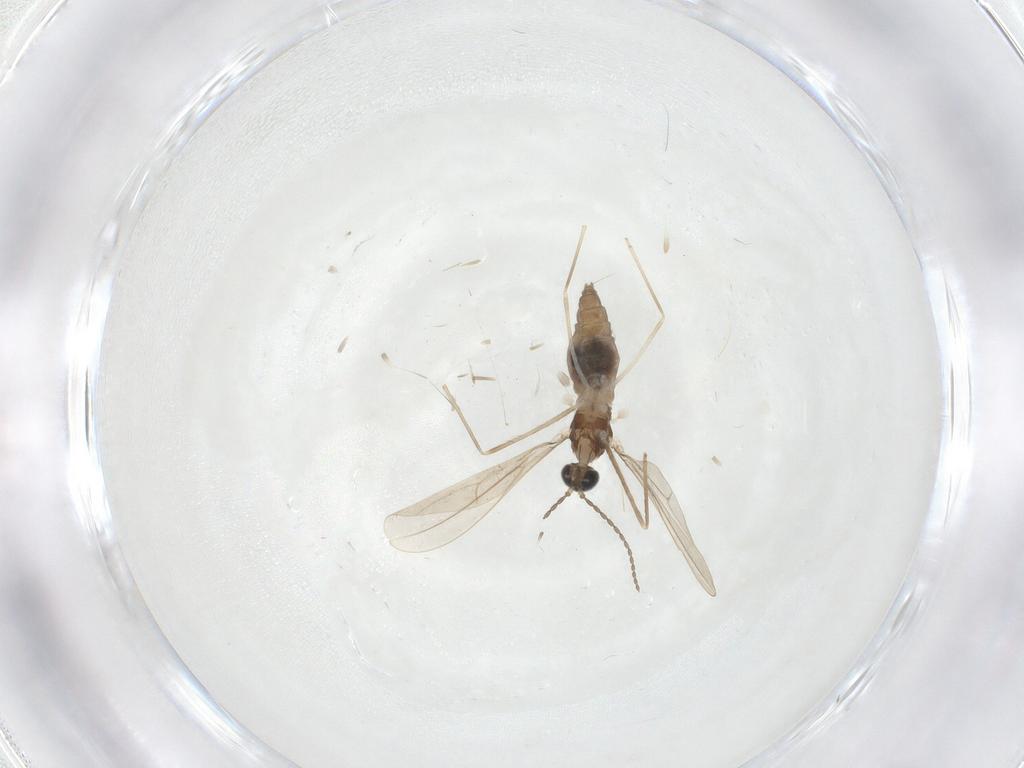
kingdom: Animalia
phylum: Arthropoda
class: Insecta
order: Diptera
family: Cecidomyiidae
